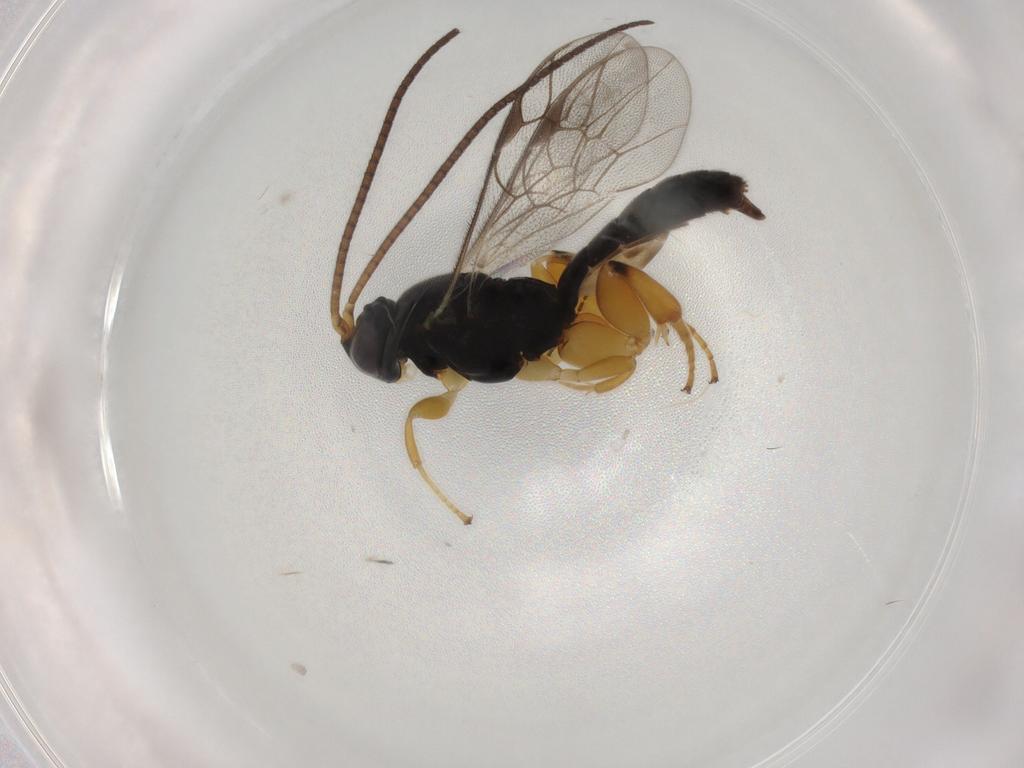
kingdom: Animalia
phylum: Arthropoda
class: Insecta
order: Hymenoptera
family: Ichneumonidae
